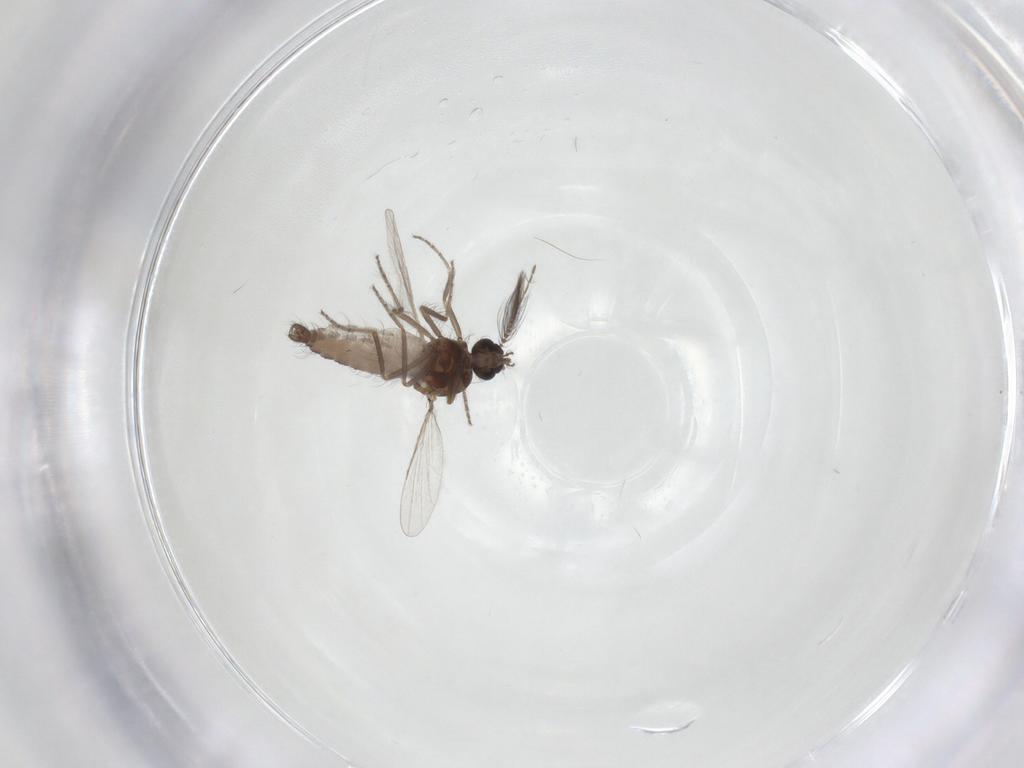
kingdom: Animalia
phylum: Arthropoda
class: Insecta
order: Diptera
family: Ceratopogonidae
